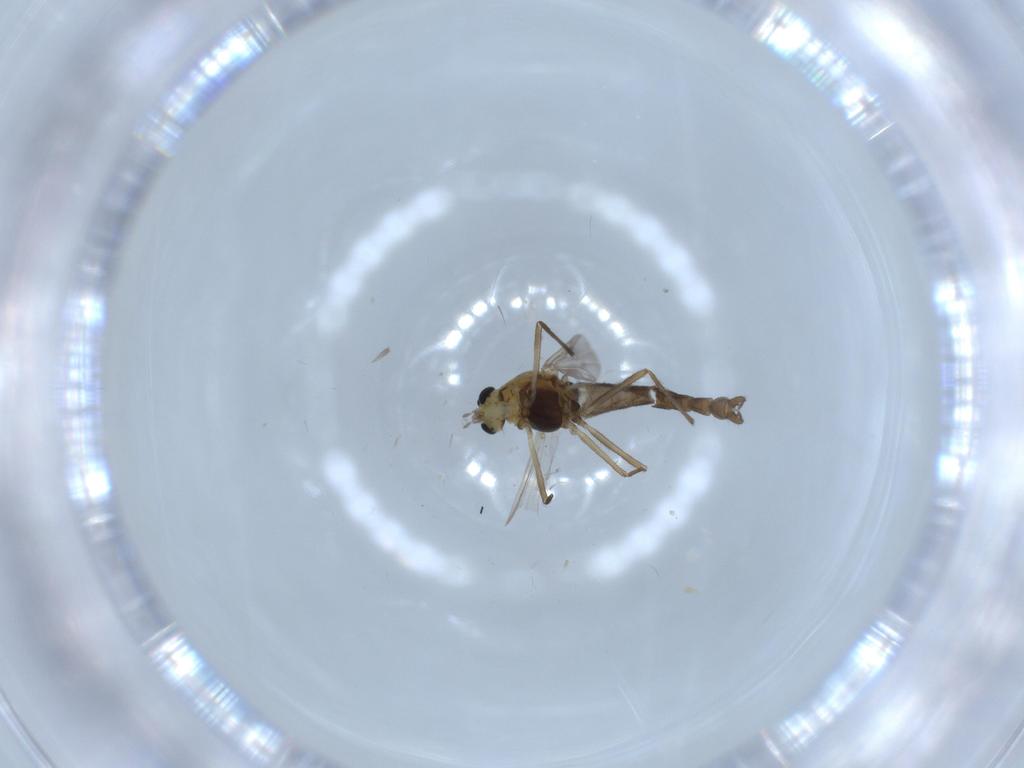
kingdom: Animalia
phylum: Arthropoda
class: Insecta
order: Diptera
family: Chironomidae
